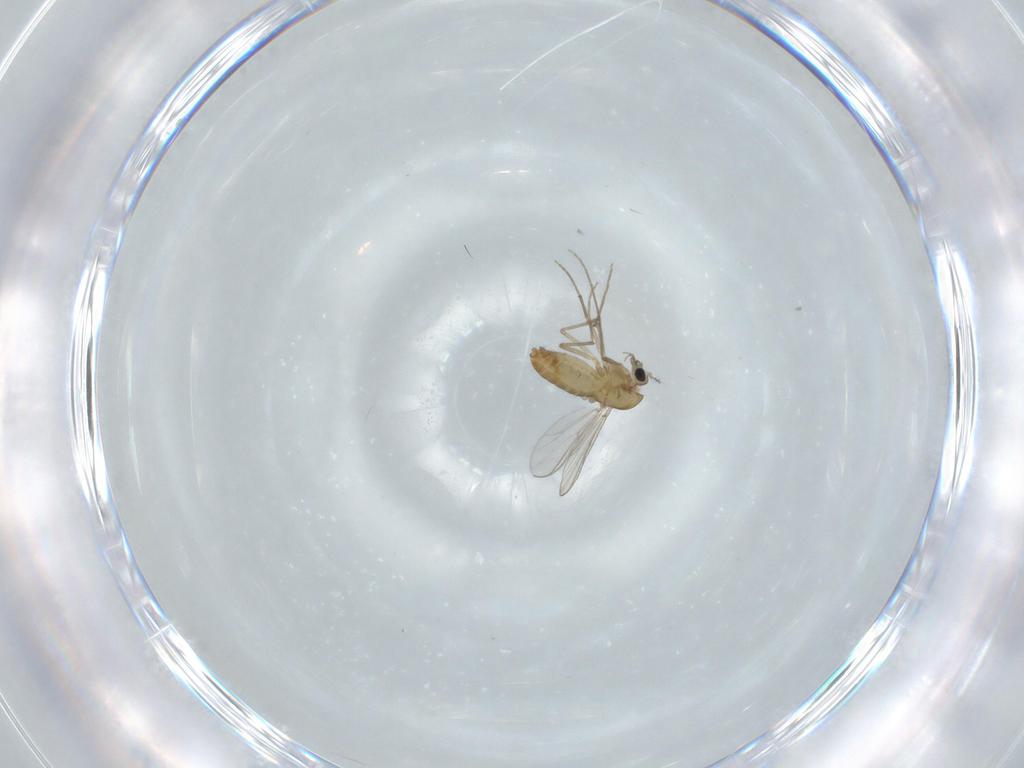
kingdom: Animalia
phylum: Arthropoda
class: Insecta
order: Diptera
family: Chironomidae
